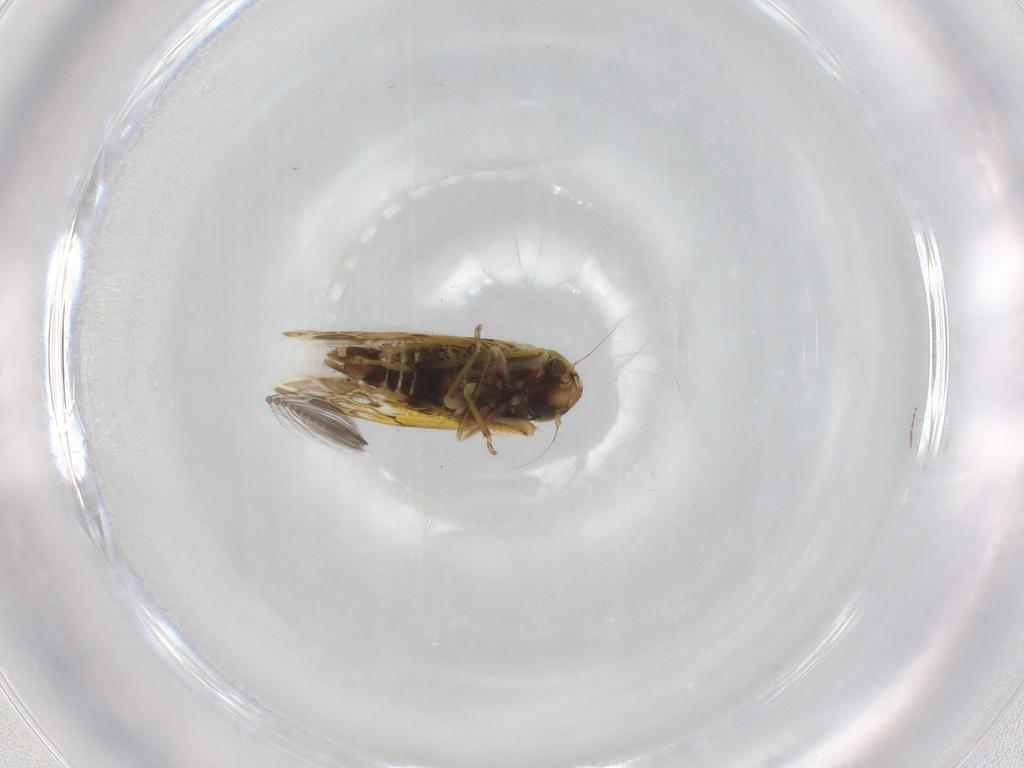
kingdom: Animalia
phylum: Arthropoda
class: Insecta
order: Hemiptera
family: Cicadellidae
